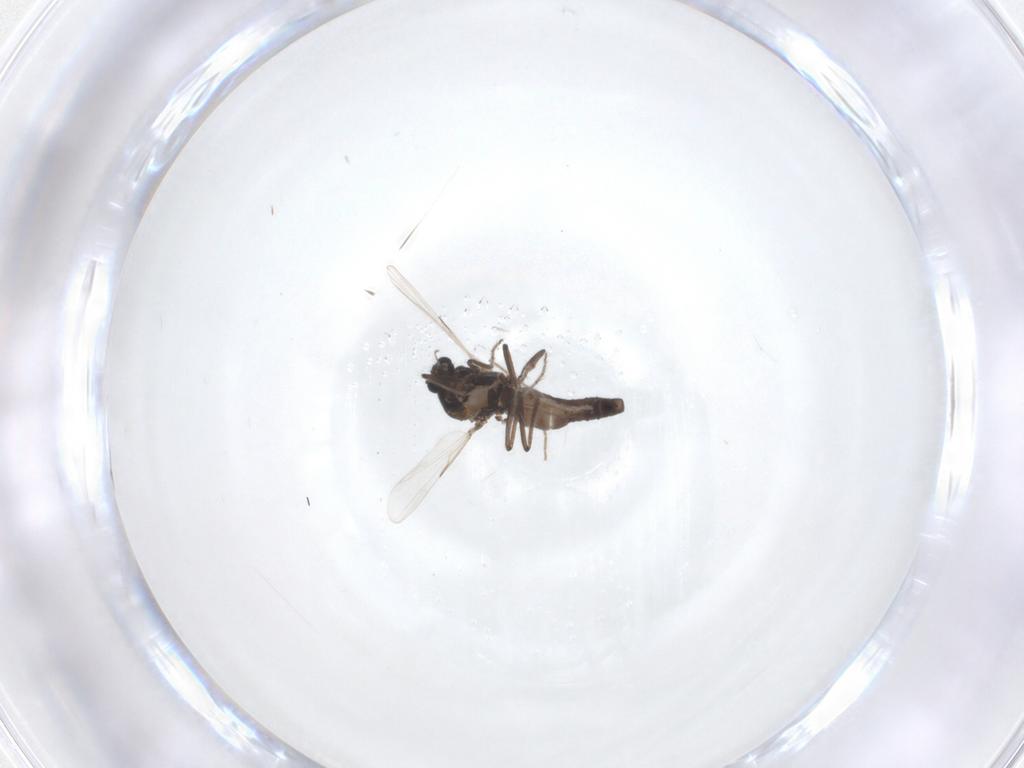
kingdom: Animalia
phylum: Arthropoda
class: Insecta
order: Diptera
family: Ceratopogonidae
